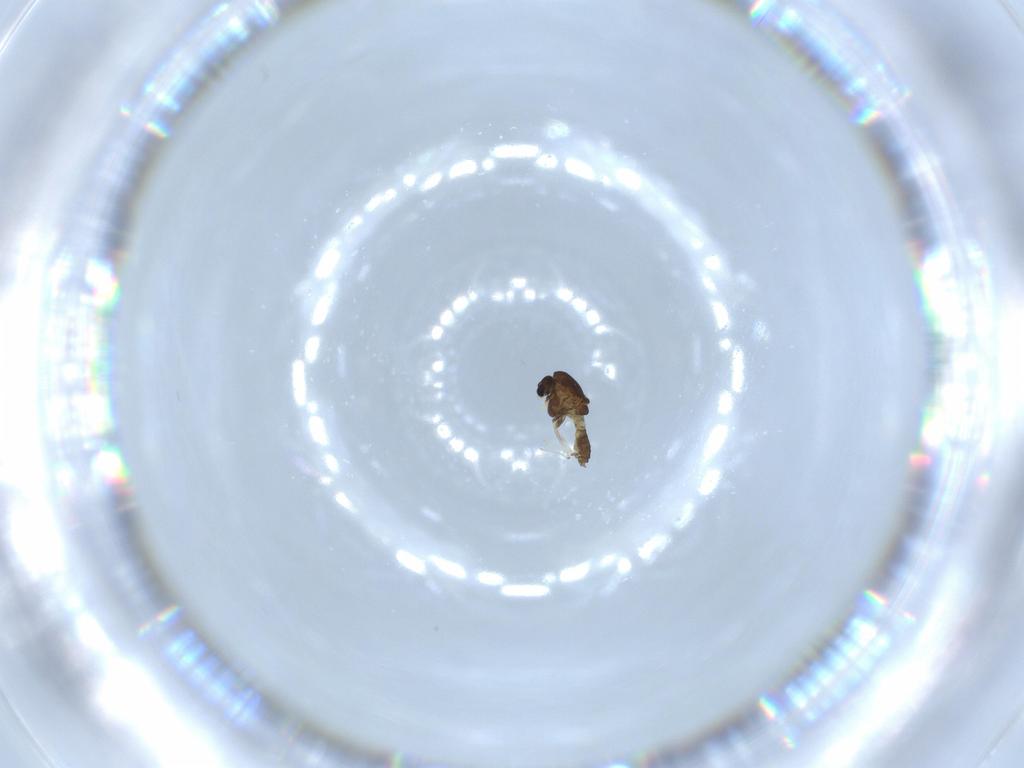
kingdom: Animalia
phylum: Arthropoda
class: Insecta
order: Diptera
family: Chironomidae
